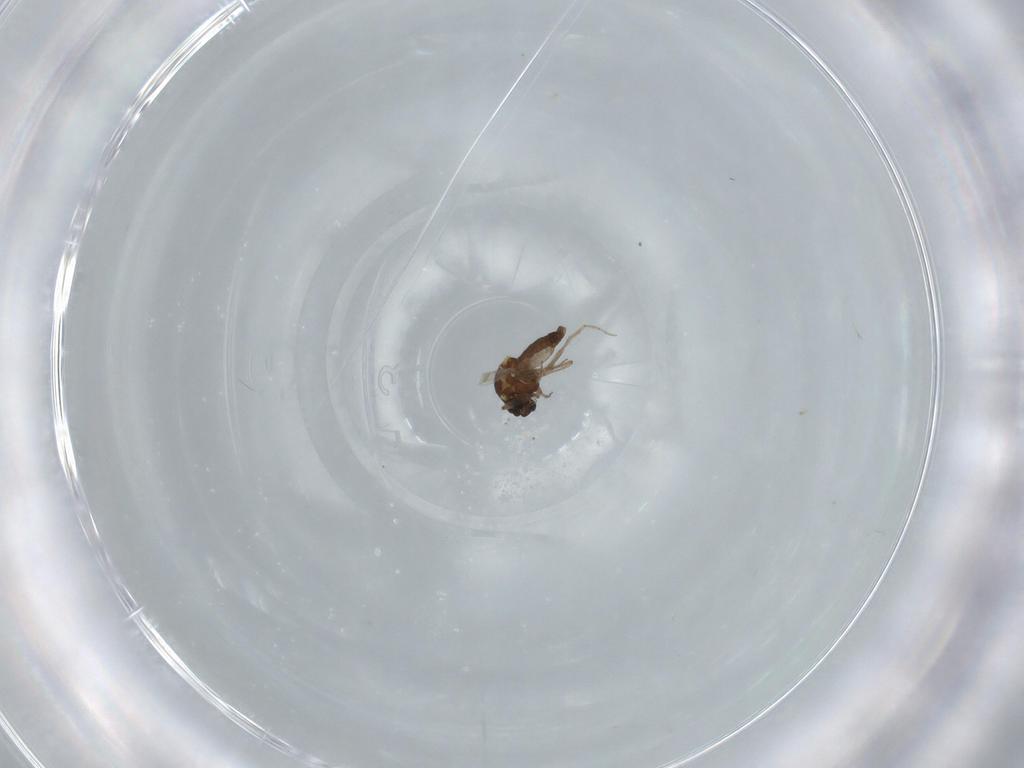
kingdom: Animalia
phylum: Arthropoda
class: Insecta
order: Diptera
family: Phoridae
